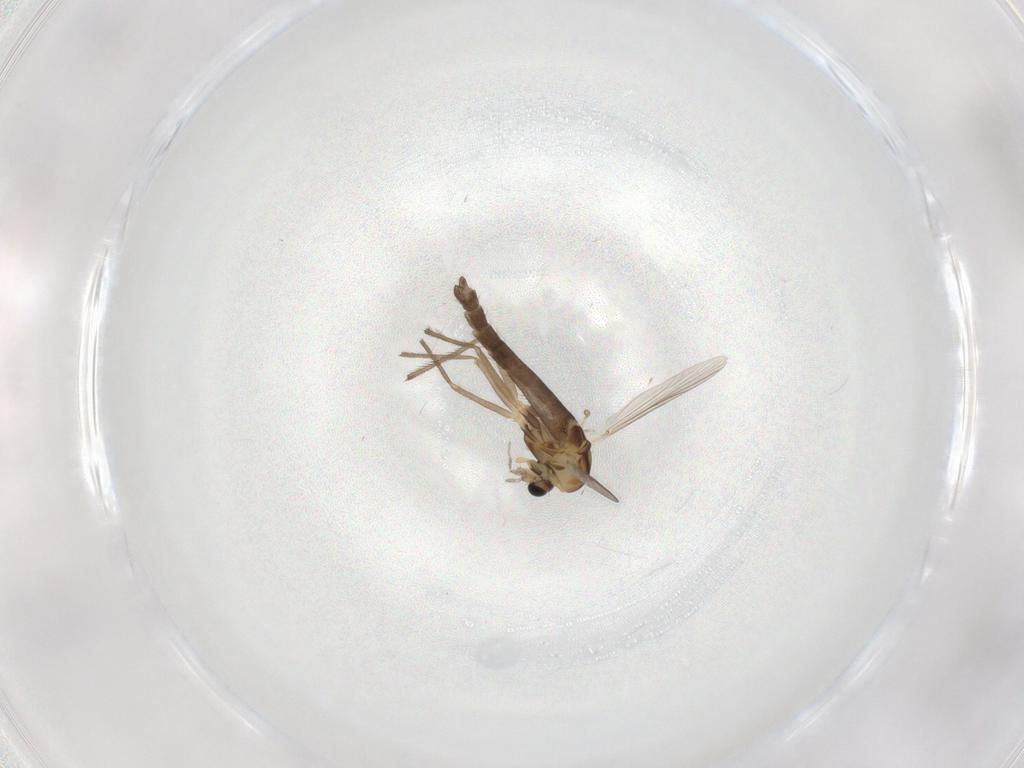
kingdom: Animalia
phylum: Arthropoda
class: Insecta
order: Diptera
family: Chironomidae
